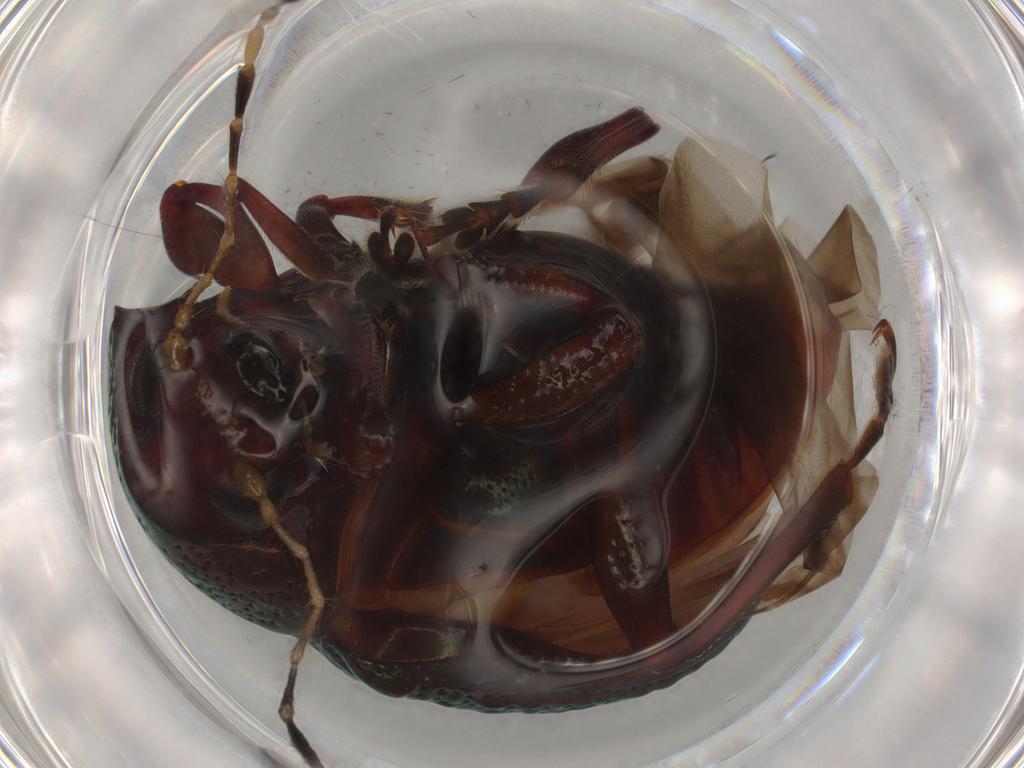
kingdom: Animalia
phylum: Arthropoda
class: Insecta
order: Coleoptera
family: Chrysomelidae
